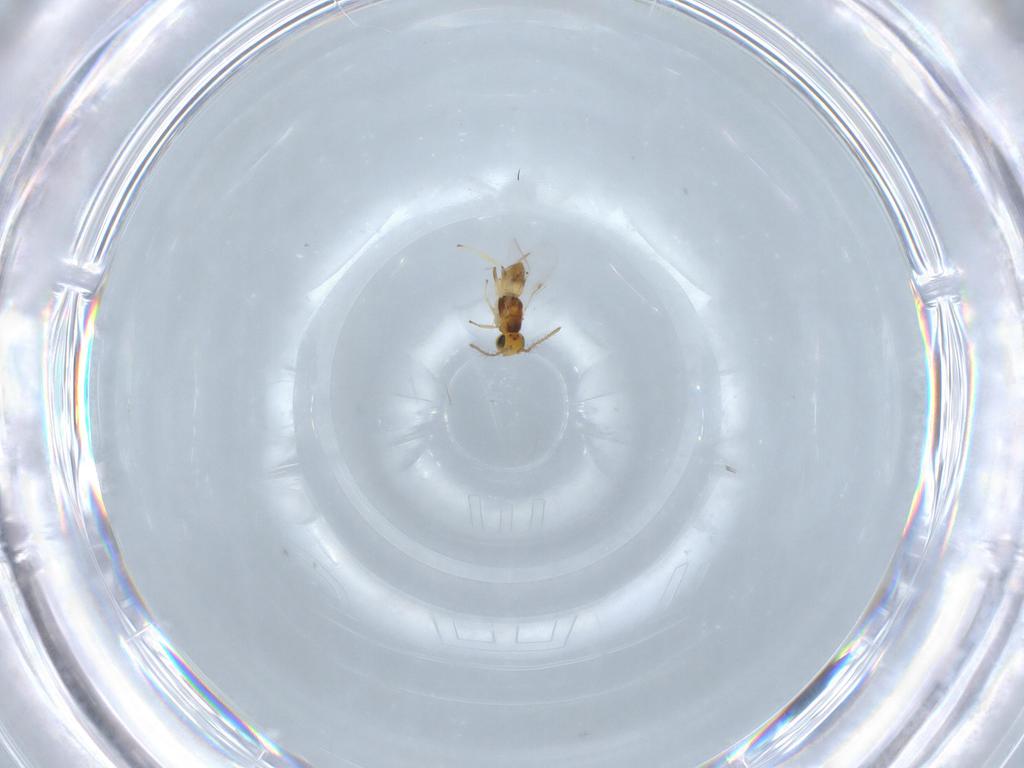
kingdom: Animalia
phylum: Arthropoda
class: Insecta
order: Hymenoptera
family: Encyrtidae
